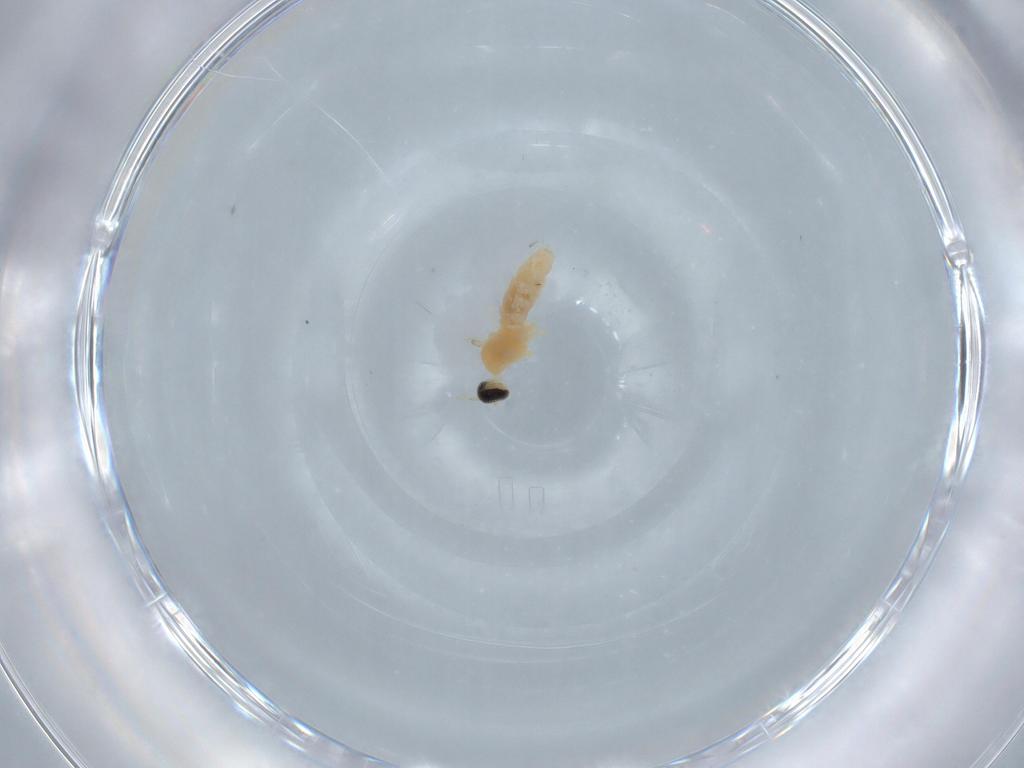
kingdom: Animalia
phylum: Arthropoda
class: Insecta
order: Diptera
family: Cecidomyiidae
